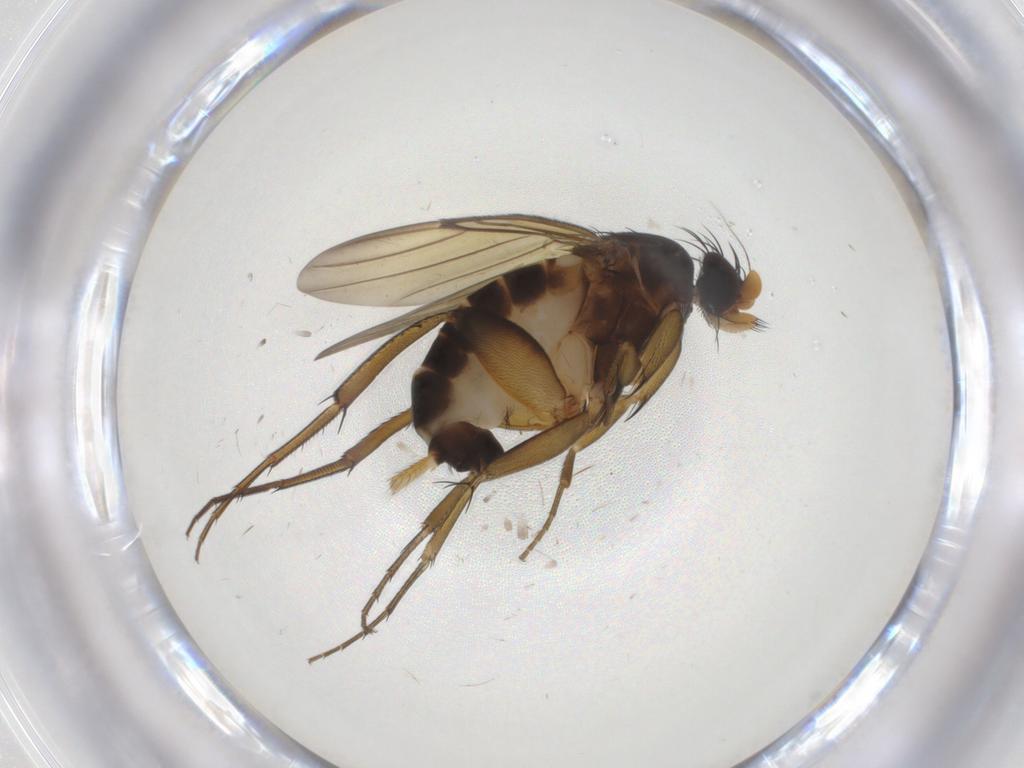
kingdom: Animalia
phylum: Arthropoda
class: Insecta
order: Diptera
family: Phoridae
